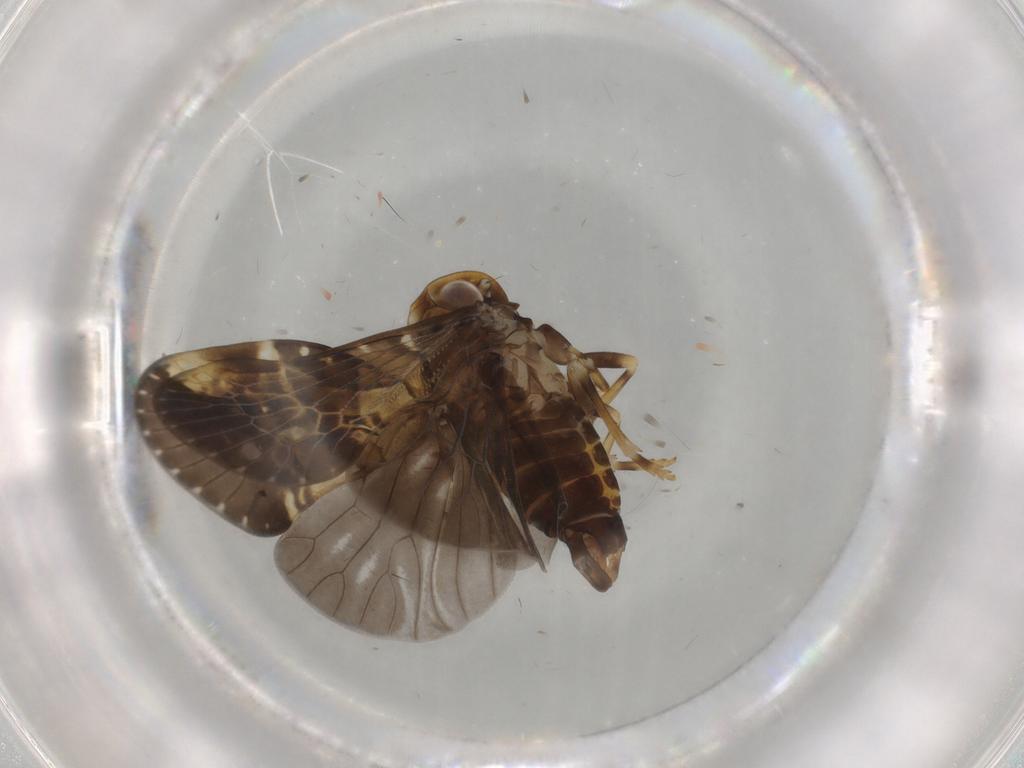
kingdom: Animalia
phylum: Arthropoda
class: Insecta
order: Hemiptera
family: Cixiidae
